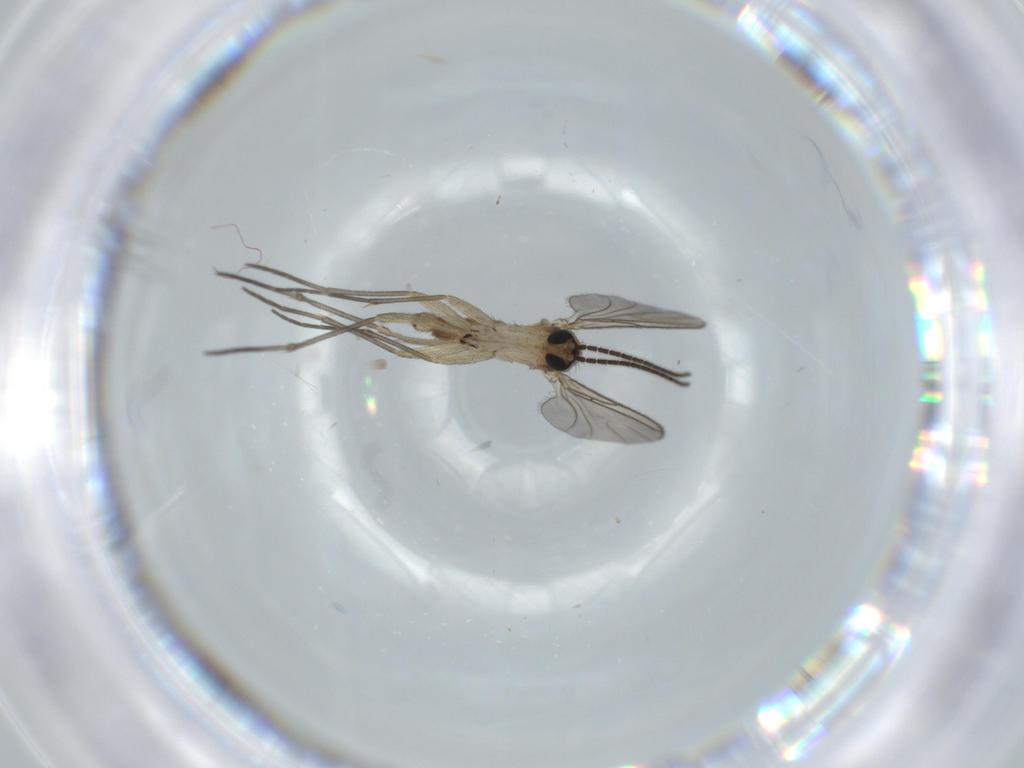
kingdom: Animalia
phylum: Arthropoda
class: Insecta
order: Diptera
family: Sciaridae
